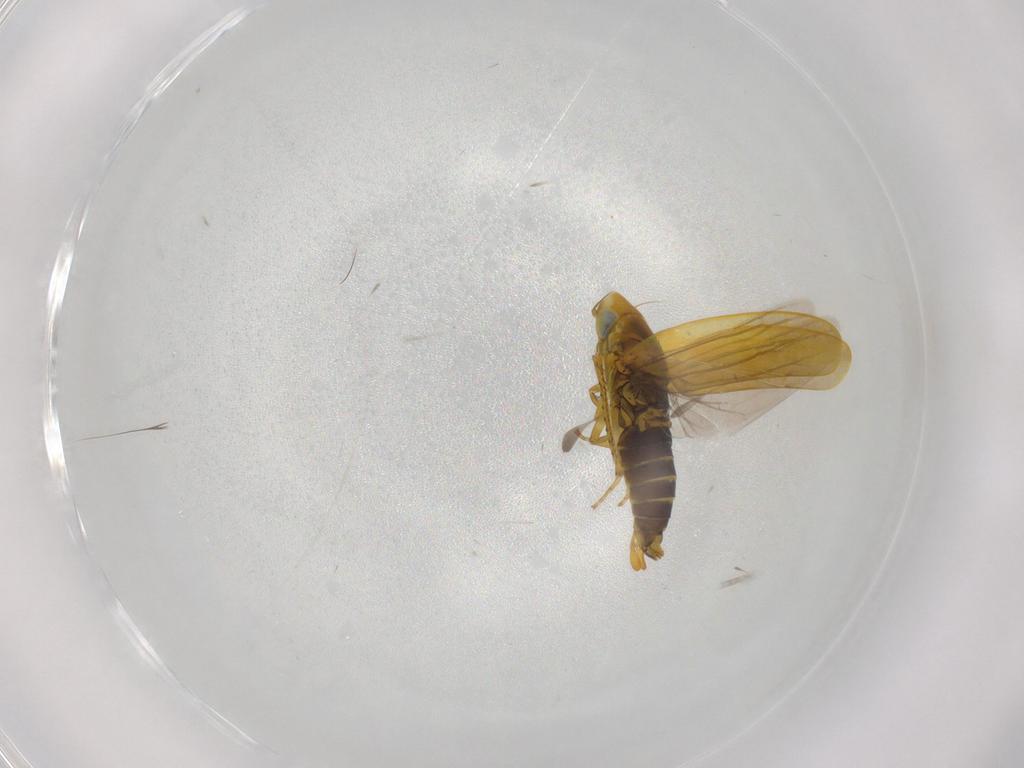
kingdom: Animalia
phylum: Arthropoda
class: Insecta
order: Hemiptera
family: Cicadellidae
